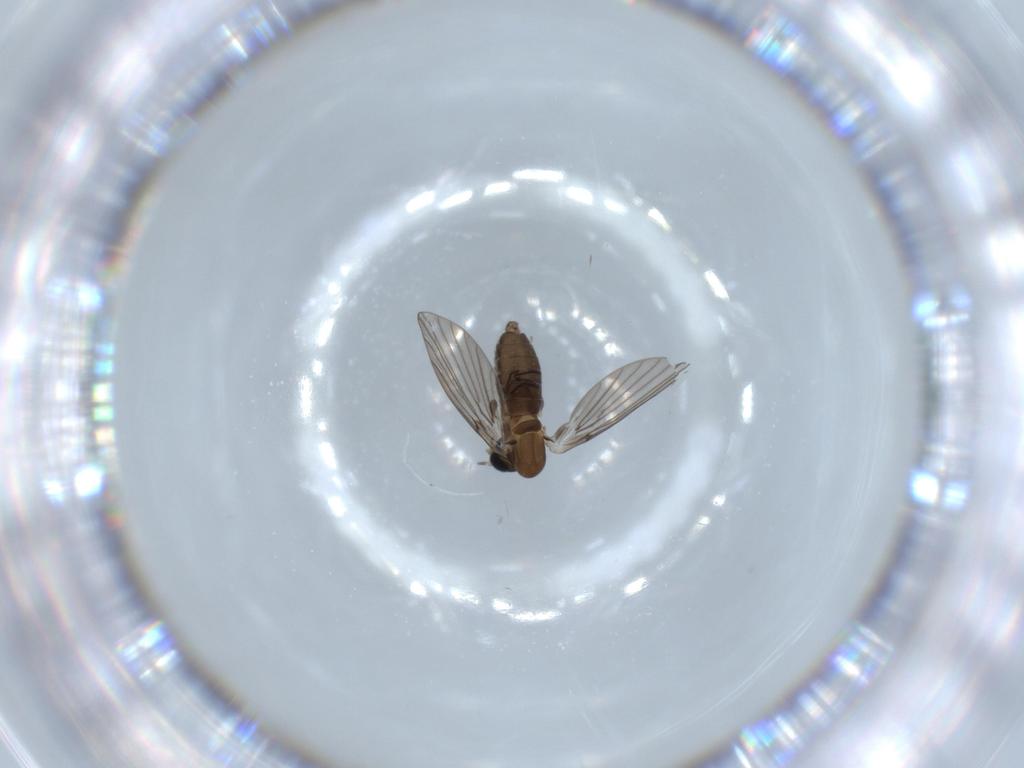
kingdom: Animalia
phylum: Arthropoda
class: Insecta
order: Diptera
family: Psychodidae
